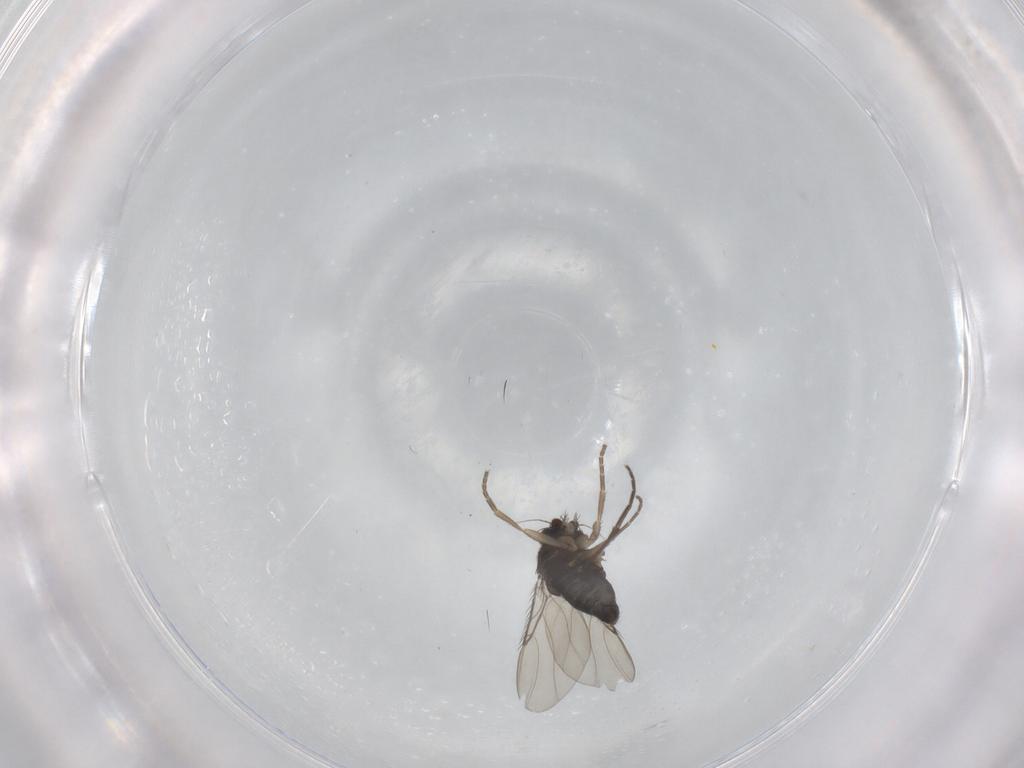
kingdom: Animalia
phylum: Arthropoda
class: Insecta
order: Diptera
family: Phoridae
